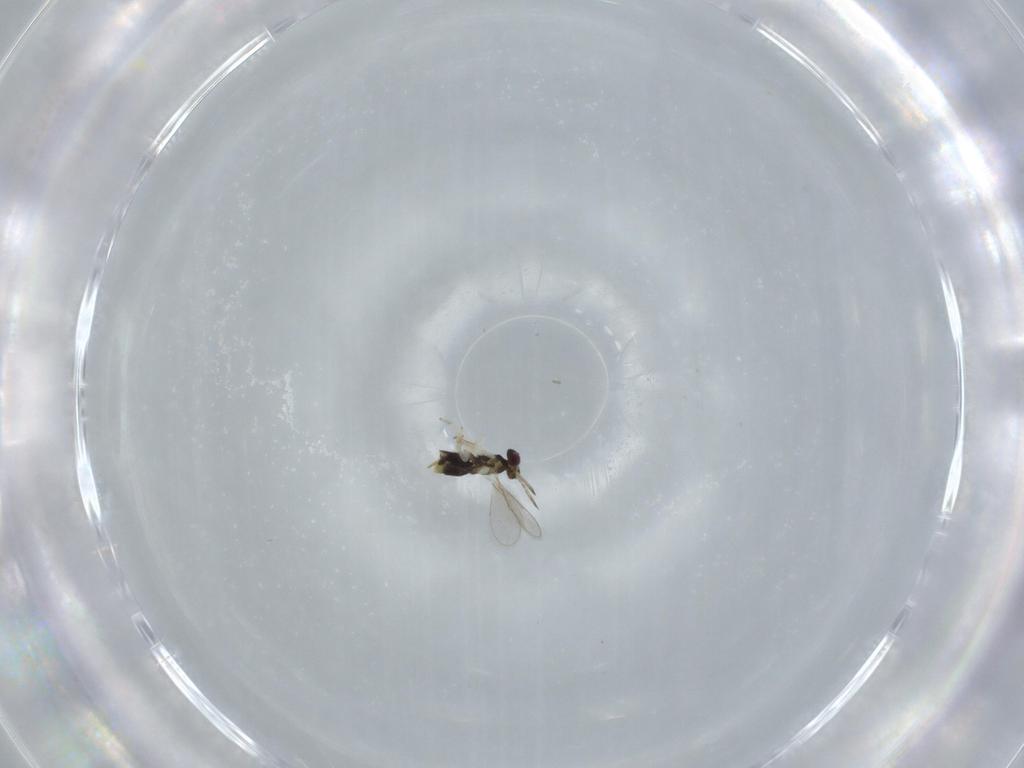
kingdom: Animalia
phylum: Arthropoda
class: Insecta
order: Hymenoptera
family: Aphelinidae
